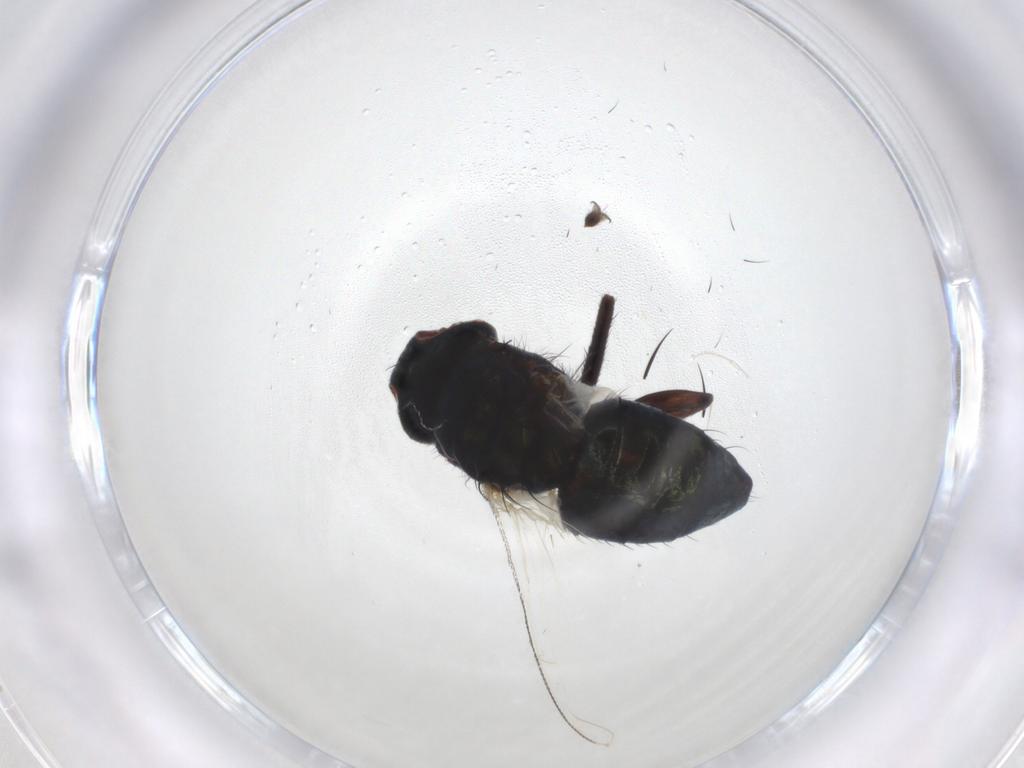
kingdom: Animalia
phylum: Arthropoda
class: Insecta
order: Diptera
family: Muscidae
